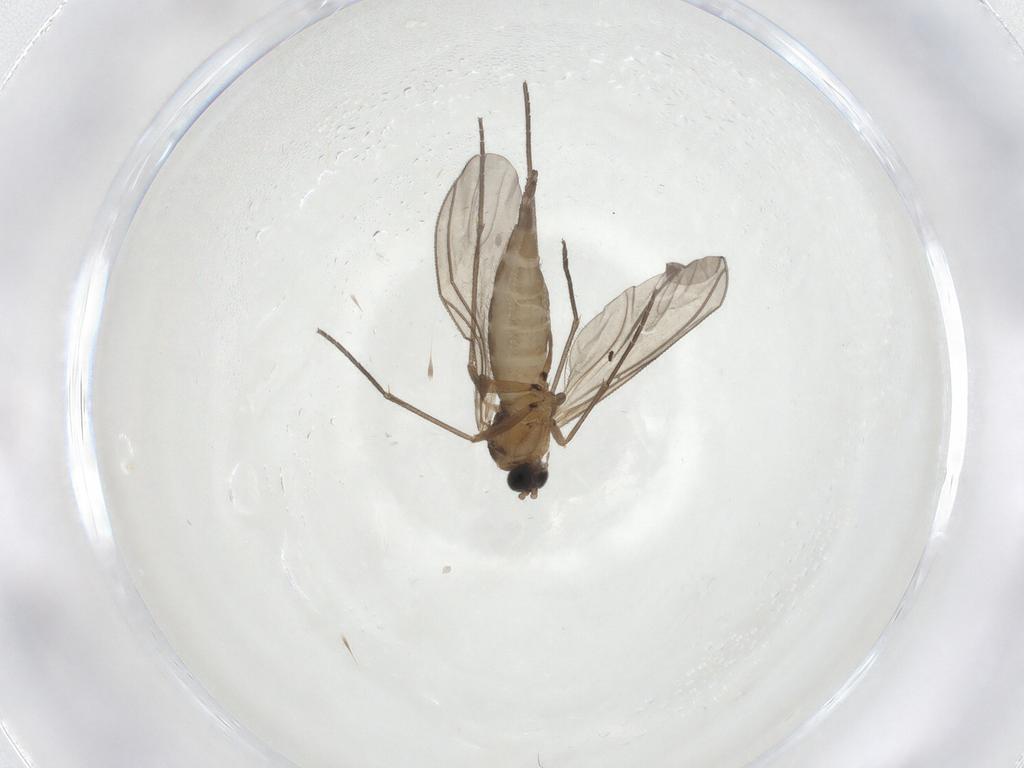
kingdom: Animalia
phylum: Arthropoda
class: Insecta
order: Diptera
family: Sciaridae
